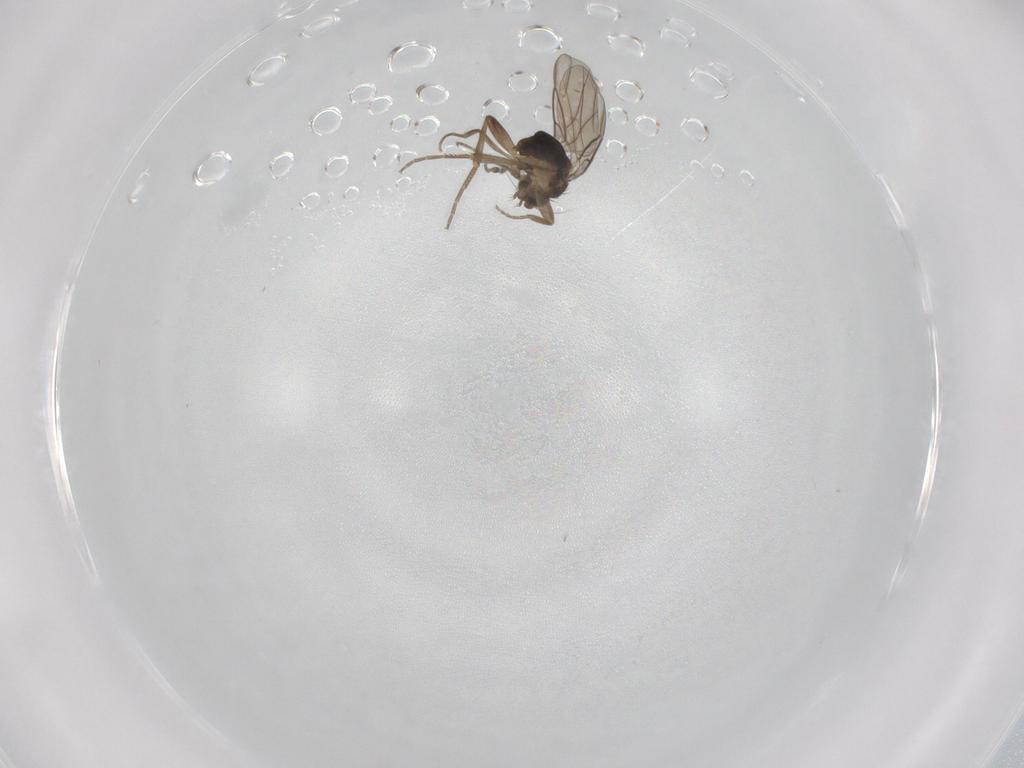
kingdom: Animalia
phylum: Arthropoda
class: Insecta
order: Diptera
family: Phoridae
